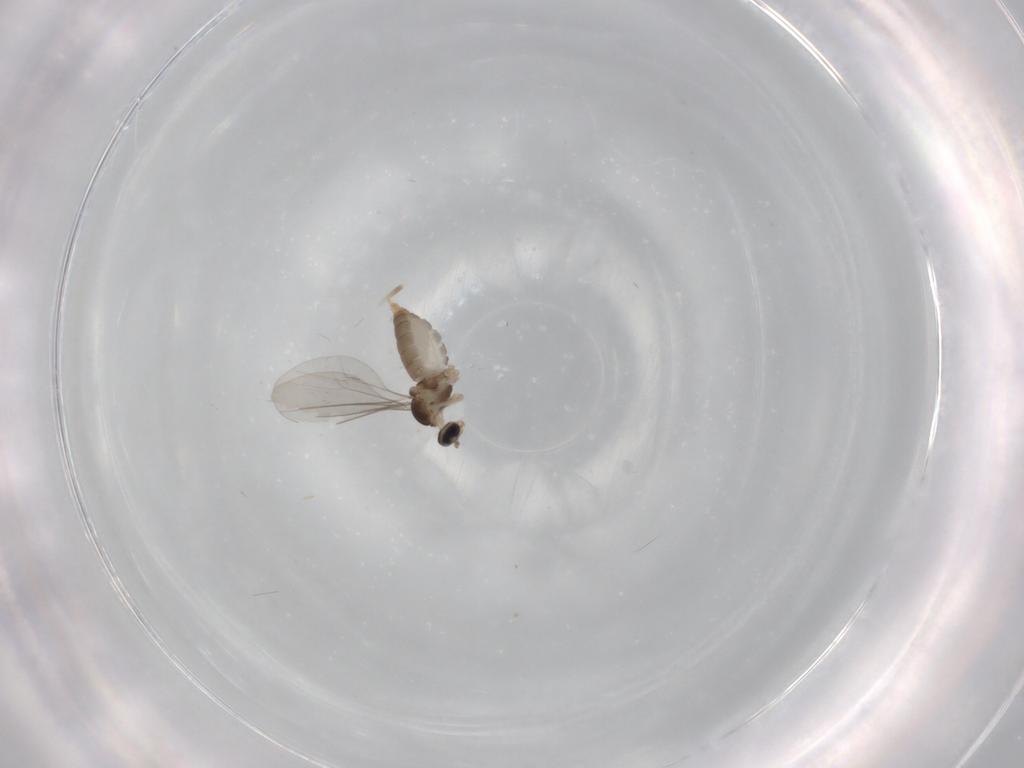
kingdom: Animalia
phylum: Arthropoda
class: Insecta
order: Diptera
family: Cecidomyiidae
